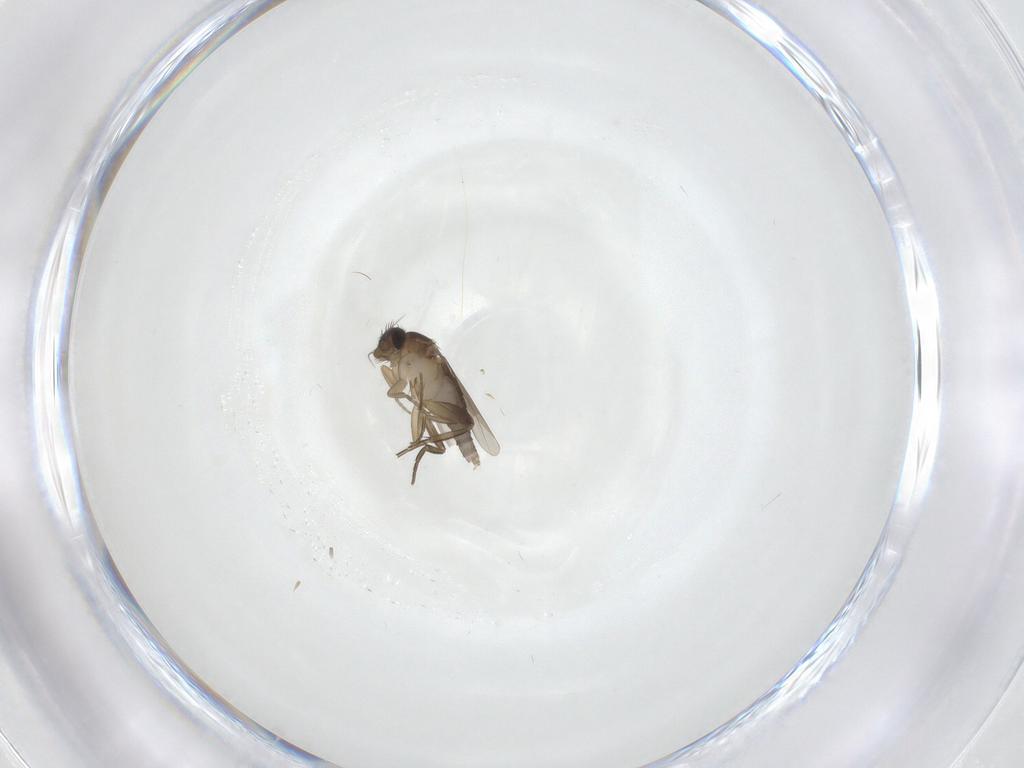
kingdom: Animalia
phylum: Arthropoda
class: Insecta
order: Diptera
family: Phoridae
